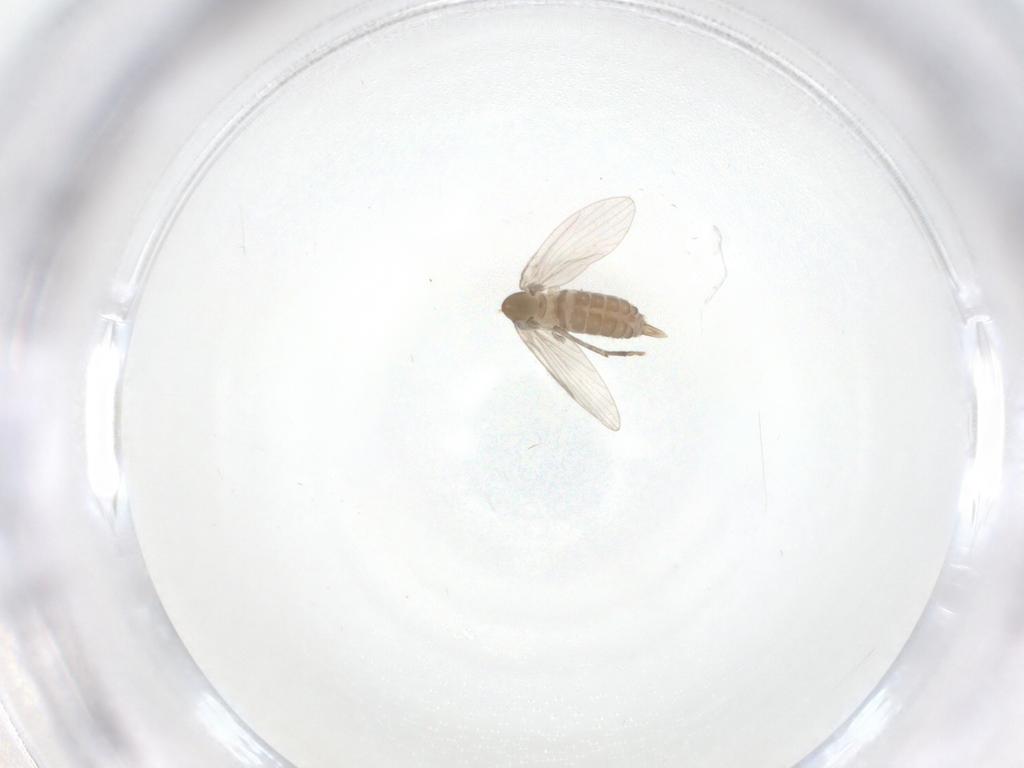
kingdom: Animalia
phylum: Arthropoda
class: Insecta
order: Diptera
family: Psychodidae
